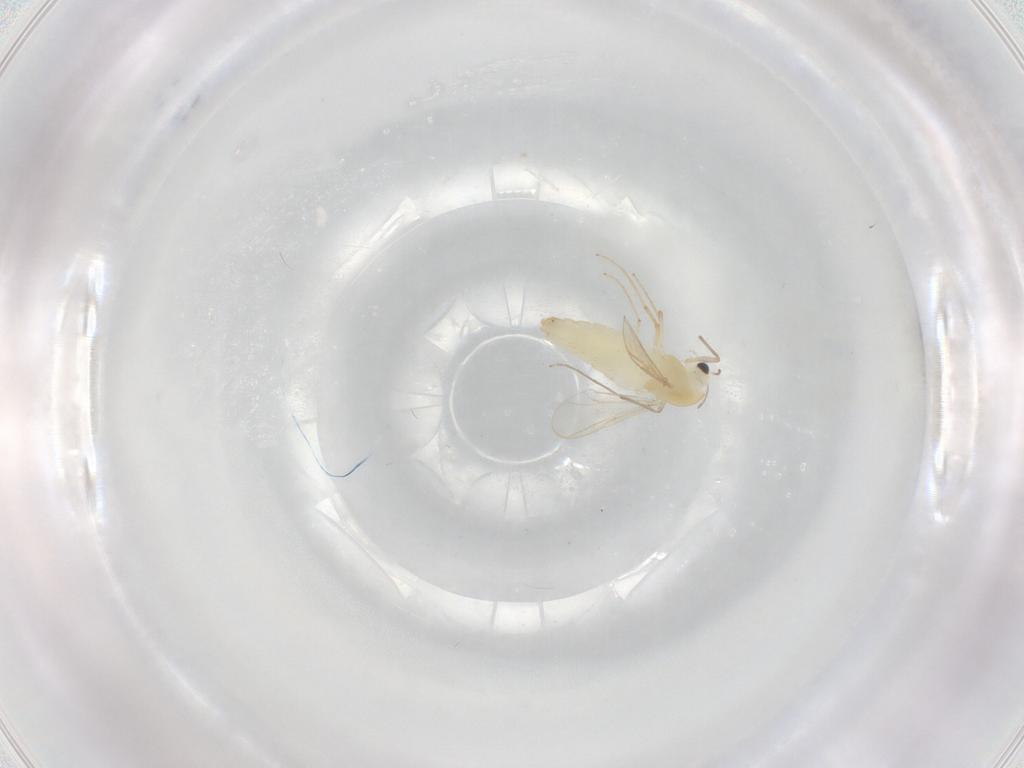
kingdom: Animalia
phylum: Arthropoda
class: Insecta
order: Diptera
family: Chironomidae
